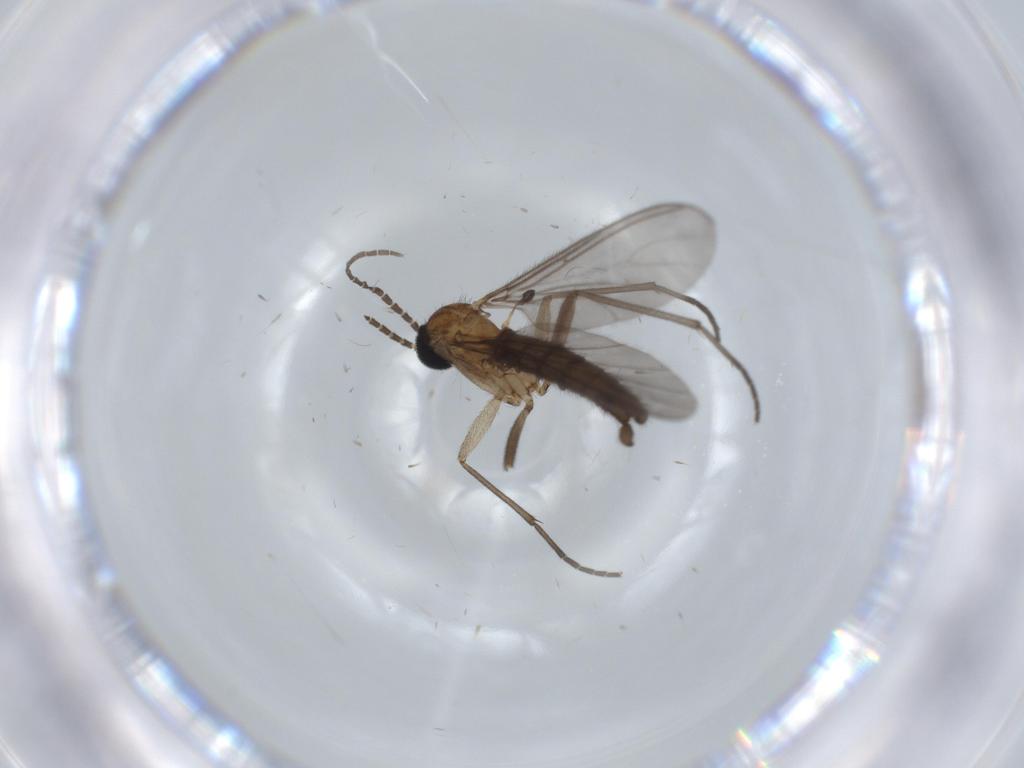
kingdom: Animalia
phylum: Arthropoda
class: Insecta
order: Diptera
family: Sciaridae
